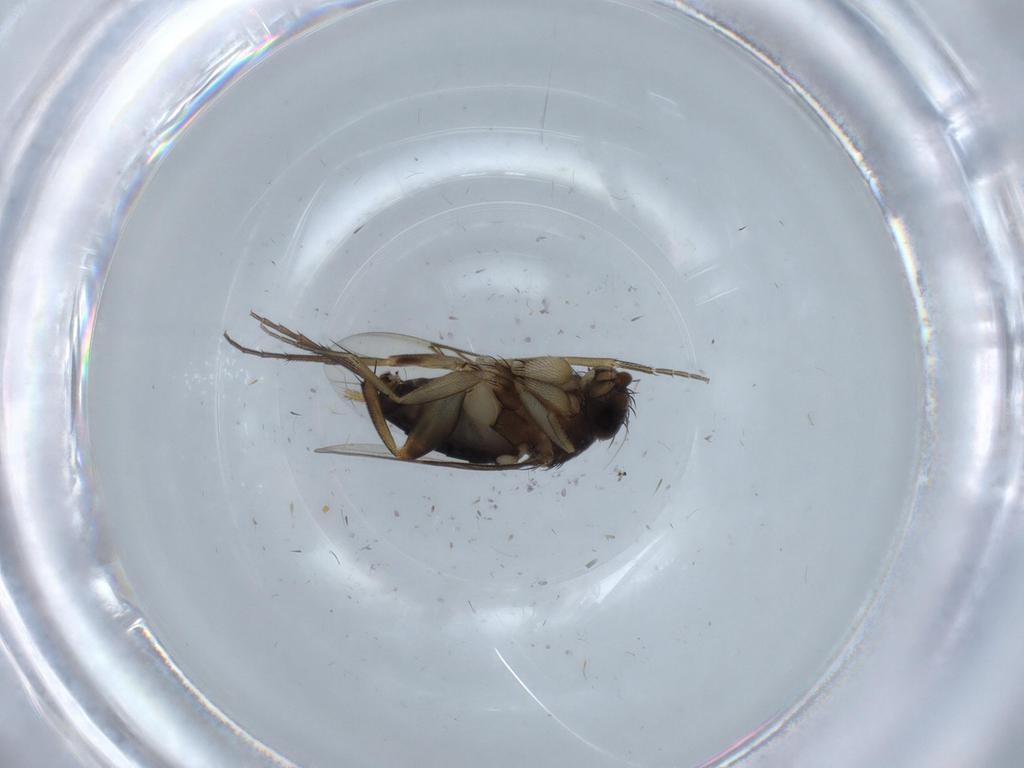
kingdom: Animalia
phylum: Arthropoda
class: Insecta
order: Diptera
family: Phoridae
